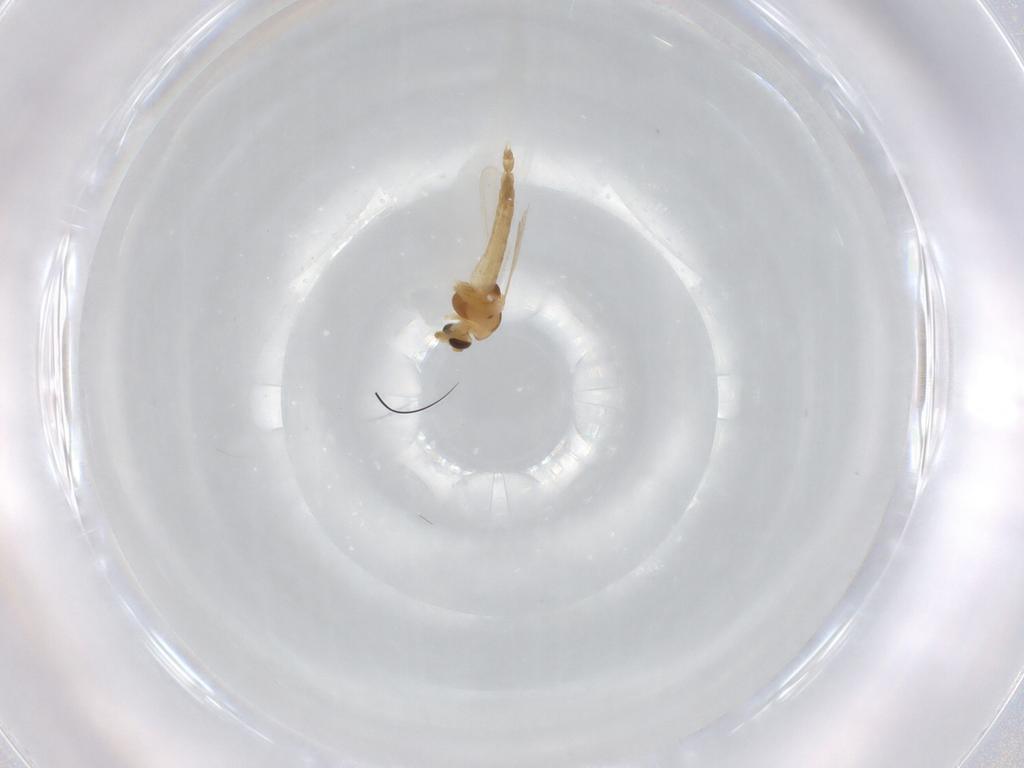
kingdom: Animalia
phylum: Arthropoda
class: Insecta
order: Diptera
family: Chironomidae
